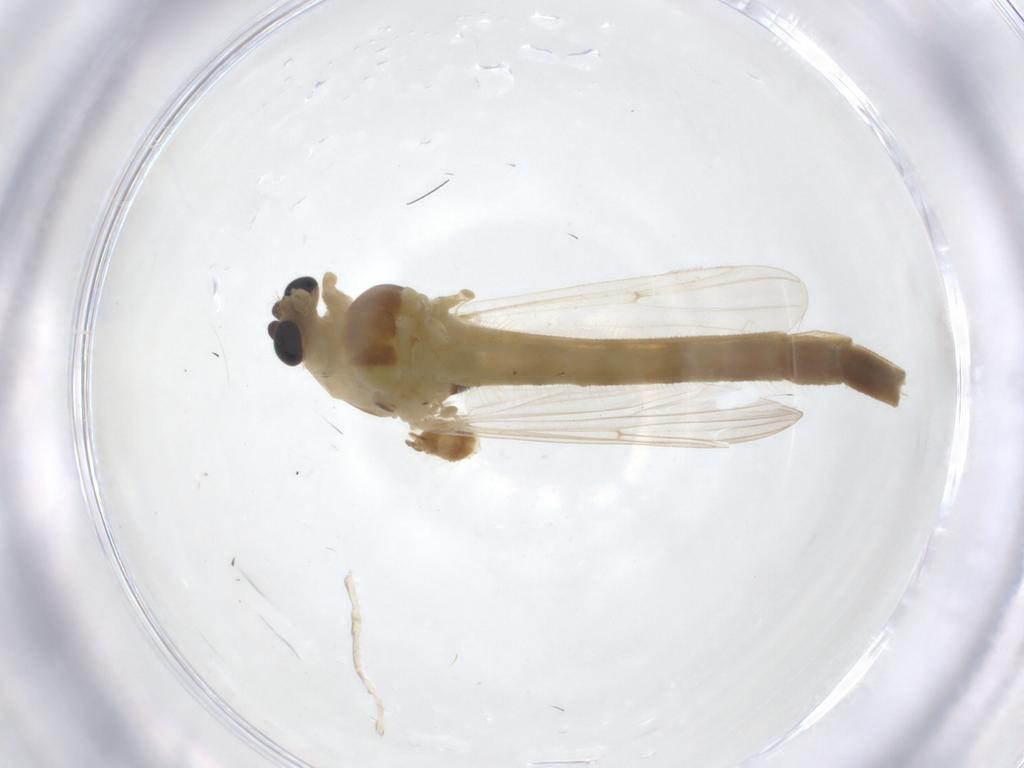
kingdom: Animalia
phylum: Arthropoda
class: Insecta
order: Diptera
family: Chironomidae
